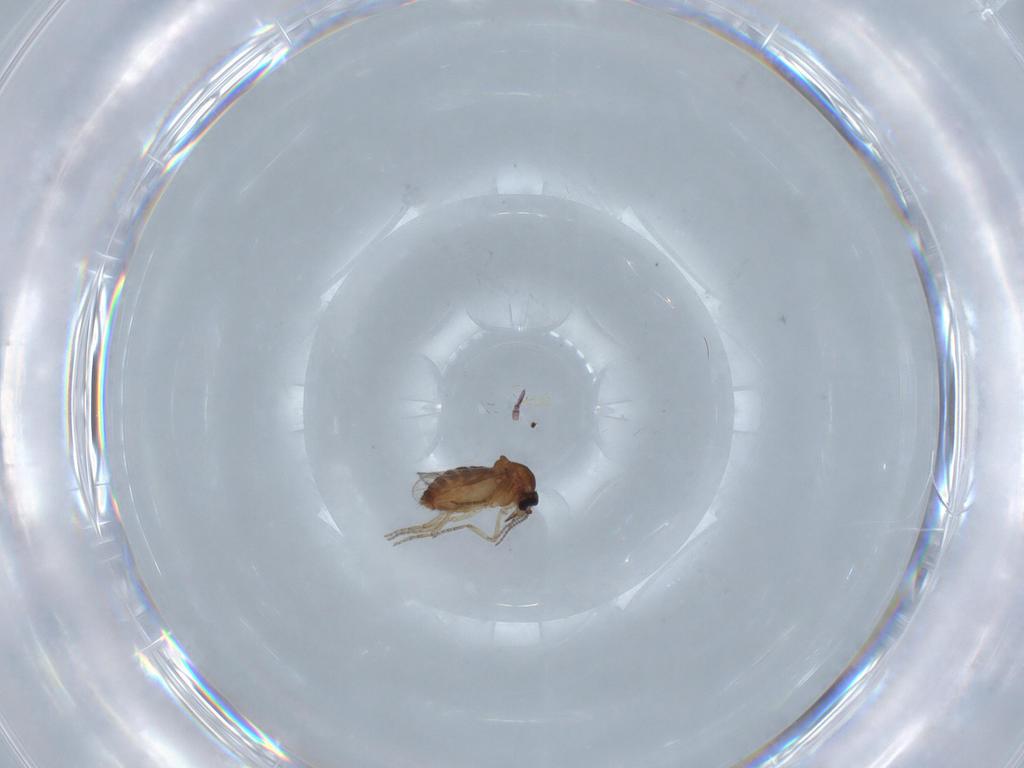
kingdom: Animalia
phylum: Arthropoda
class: Insecta
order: Diptera
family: Ceratopogonidae
